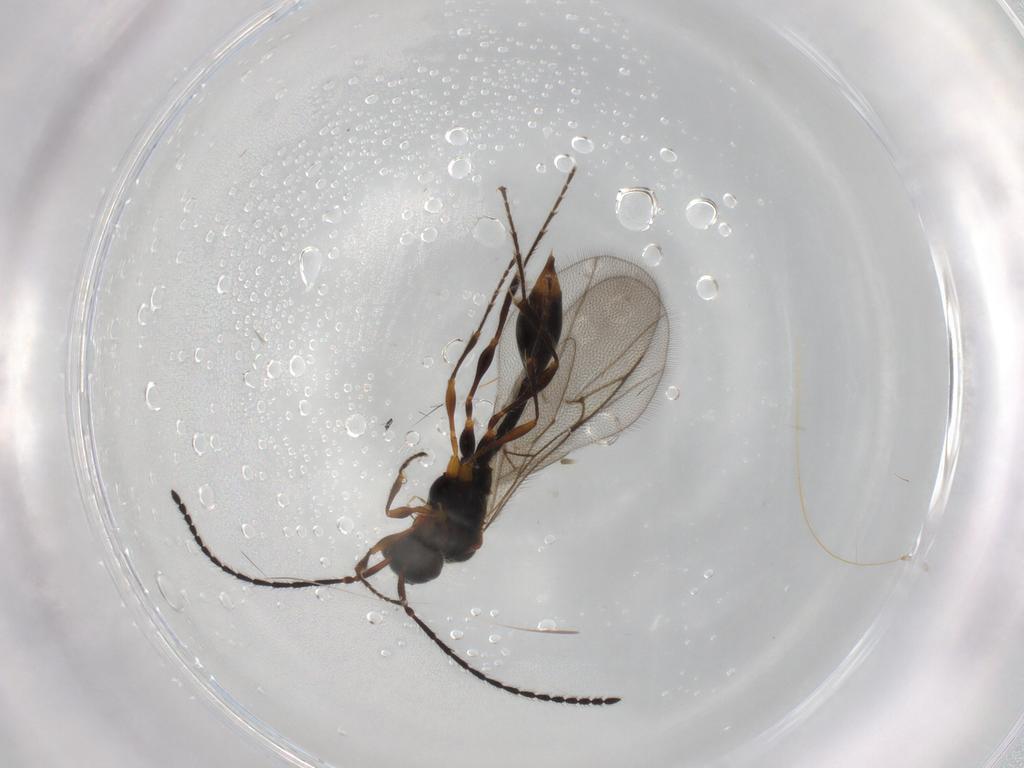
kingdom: Animalia
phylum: Arthropoda
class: Insecta
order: Hymenoptera
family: Diapriidae
